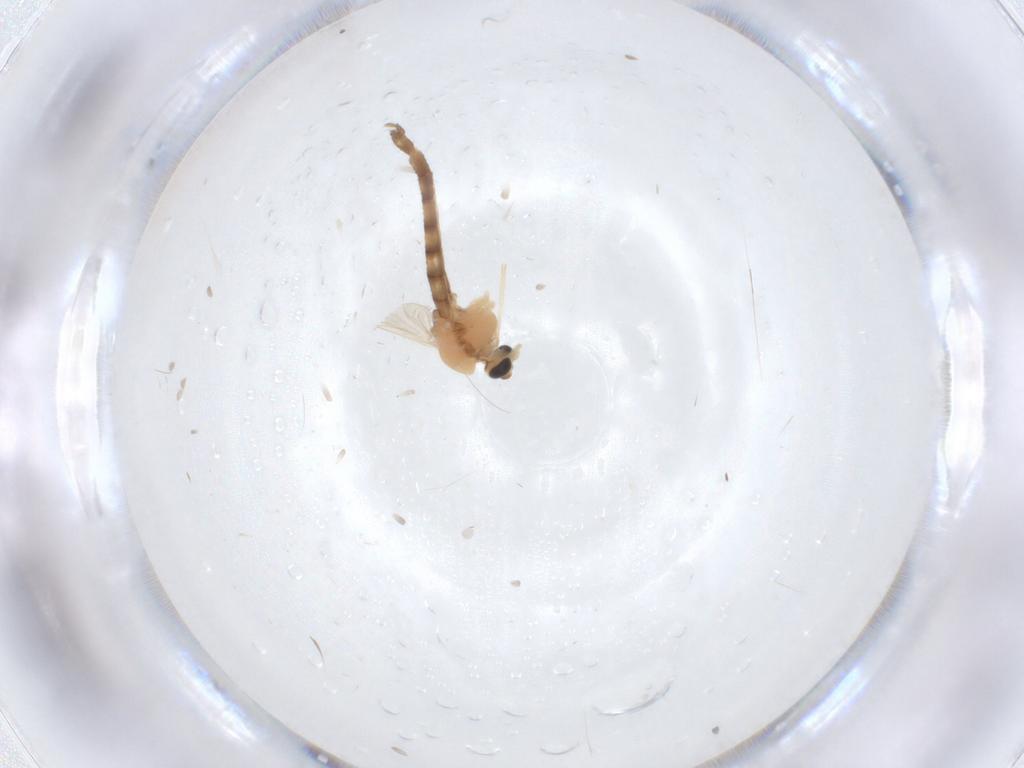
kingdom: Animalia
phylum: Arthropoda
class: Insecta
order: Diptera
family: Chironomidae
